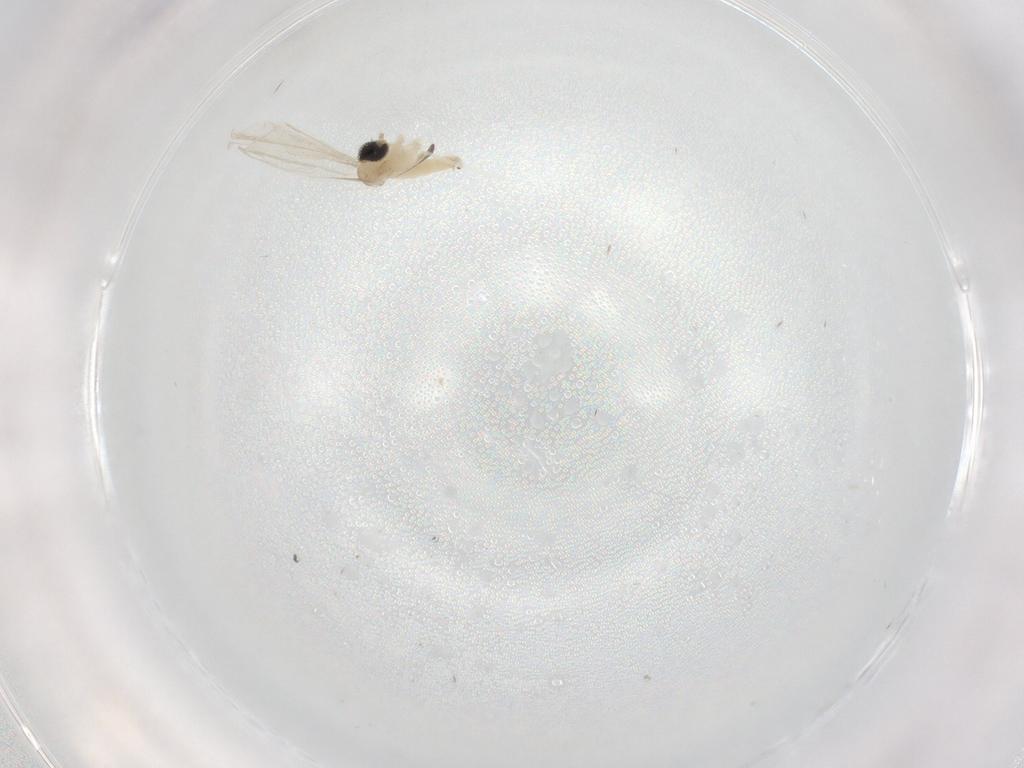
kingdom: Animalia
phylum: Arthropoda
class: Insecta
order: Diptera
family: Cecidomyiidae
